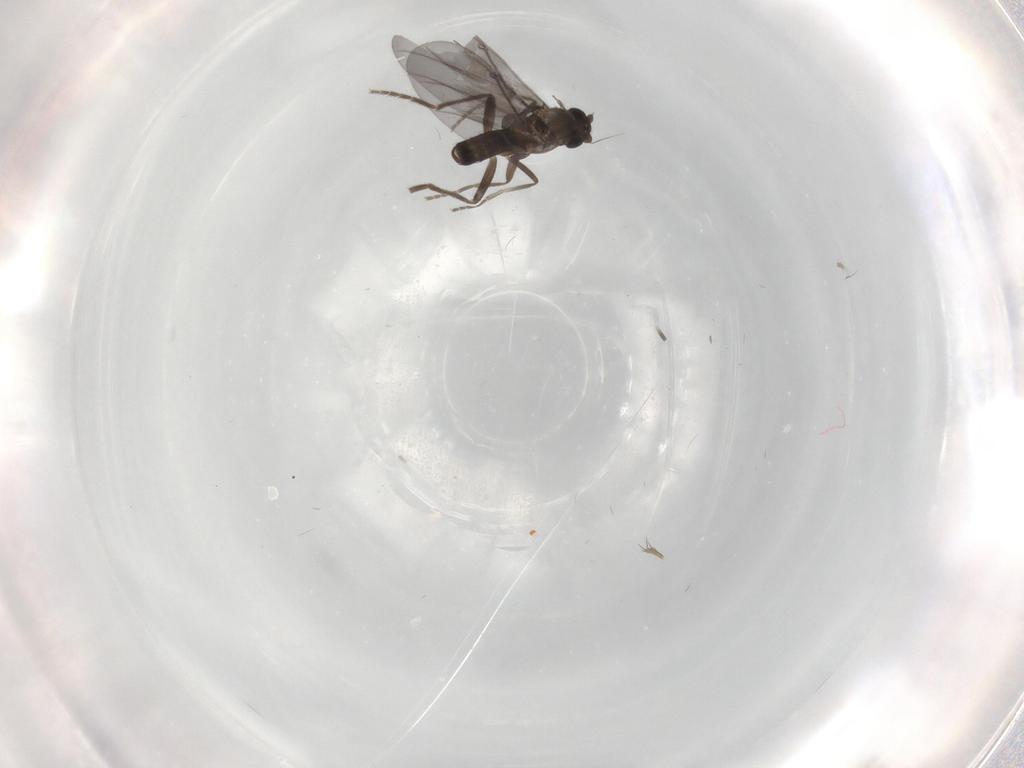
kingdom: Animalia
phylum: Arthropoda
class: Insecta
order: Diptera
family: Phoridae
